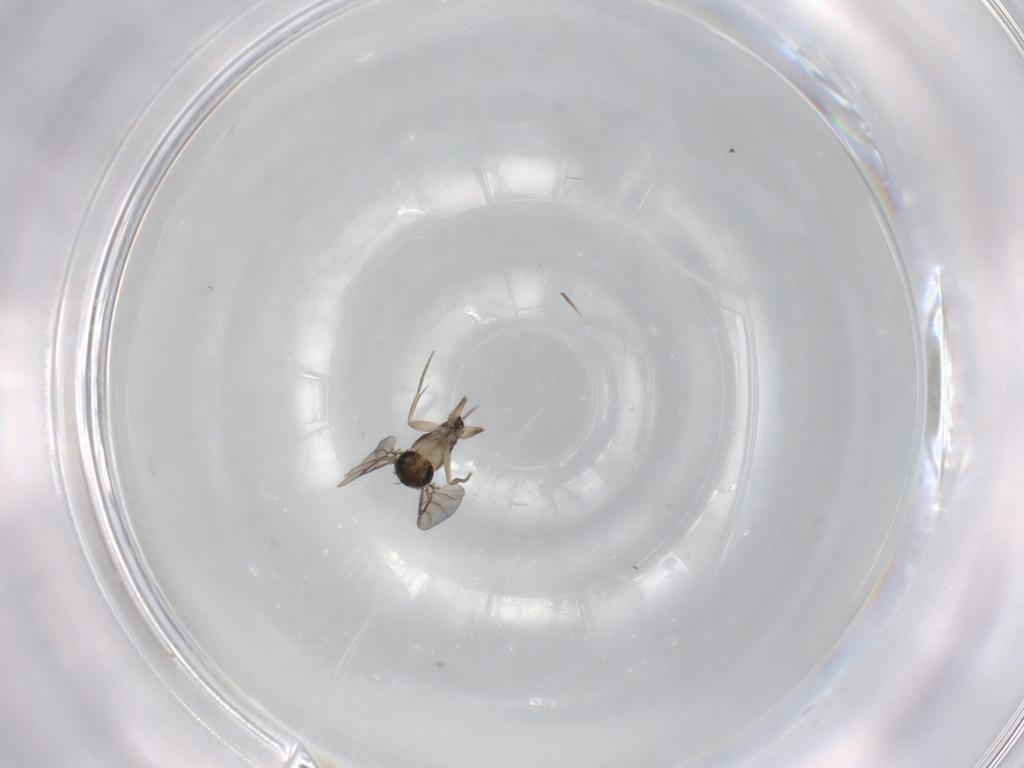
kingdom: Animalia
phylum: Arthropoda
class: Insecta
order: Diptera
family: Phoridae
